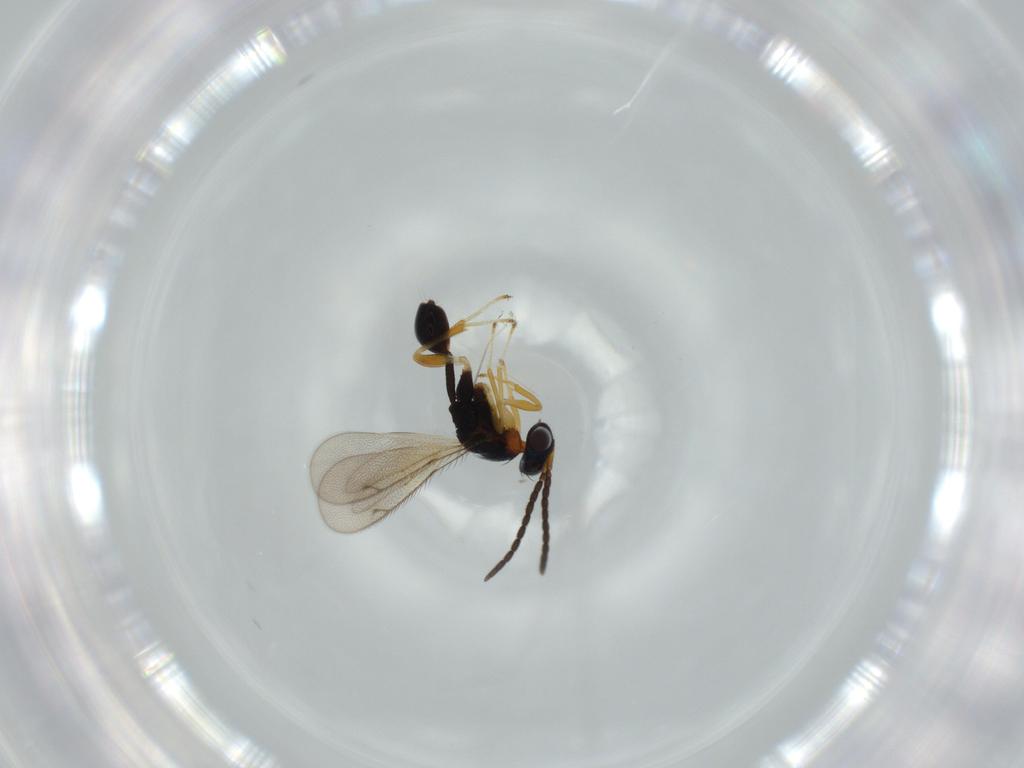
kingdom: Animalia
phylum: Arthropoda
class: Insecta
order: Hymenoptera
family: Diparidae
